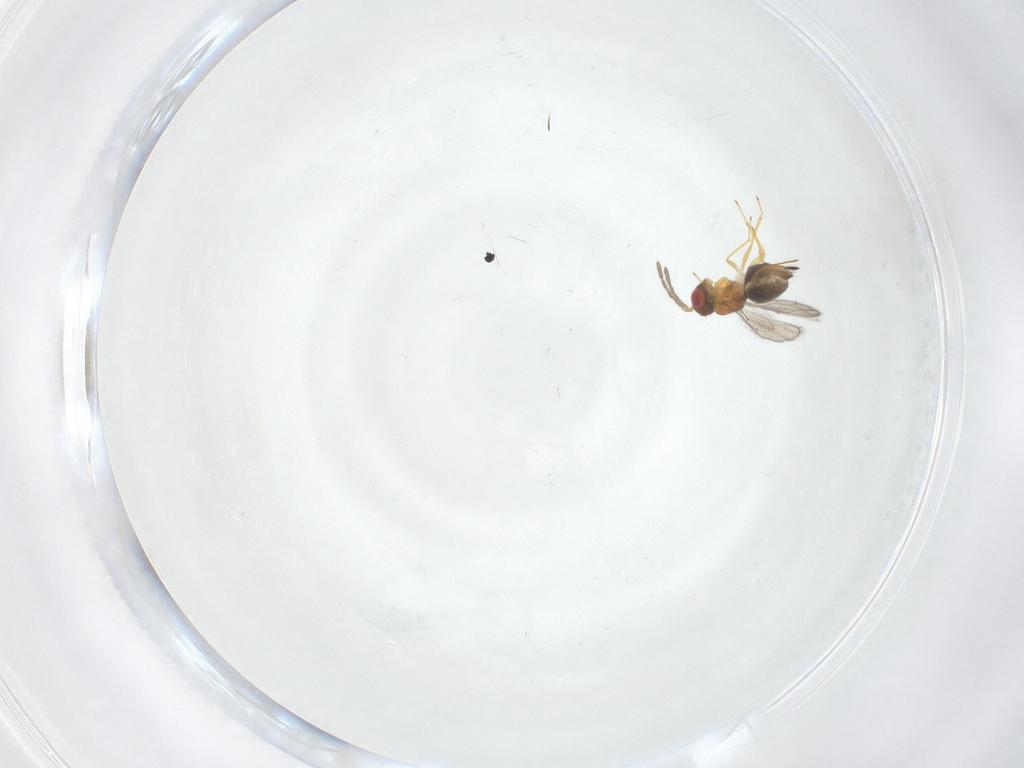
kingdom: Animalia
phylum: Arthropoda
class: Insecta
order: Hymenoptera
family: Eulophidae
